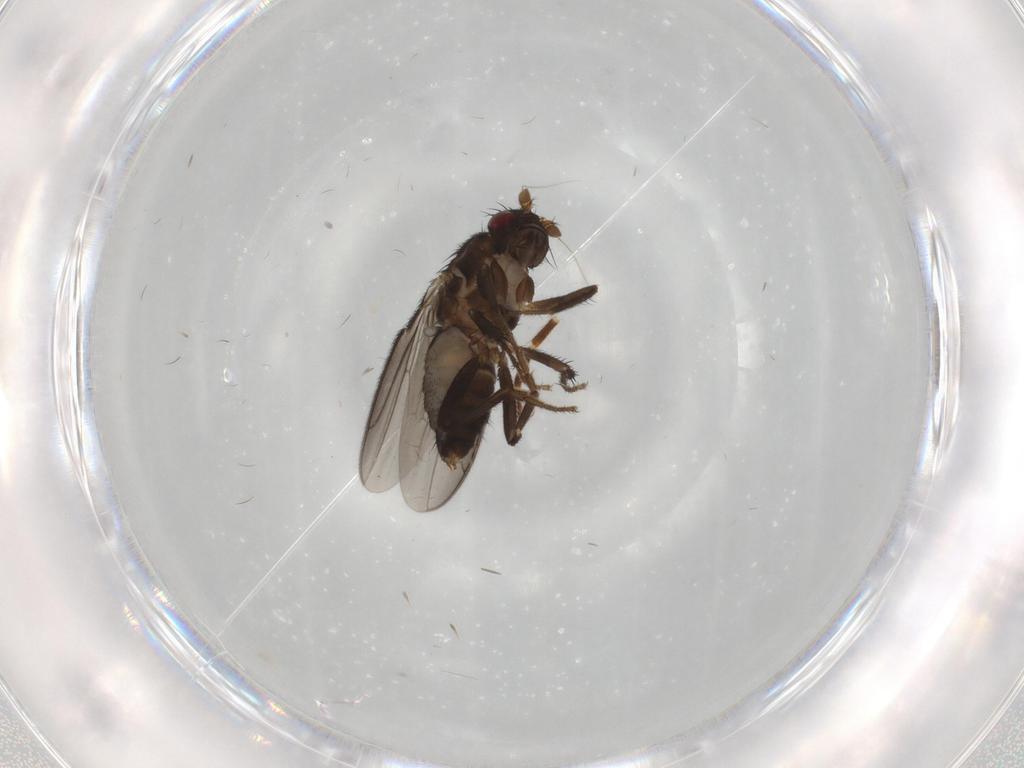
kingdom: Animalia
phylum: Arthropoda
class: Insecta
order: Diptera
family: Sphaeroceridae
